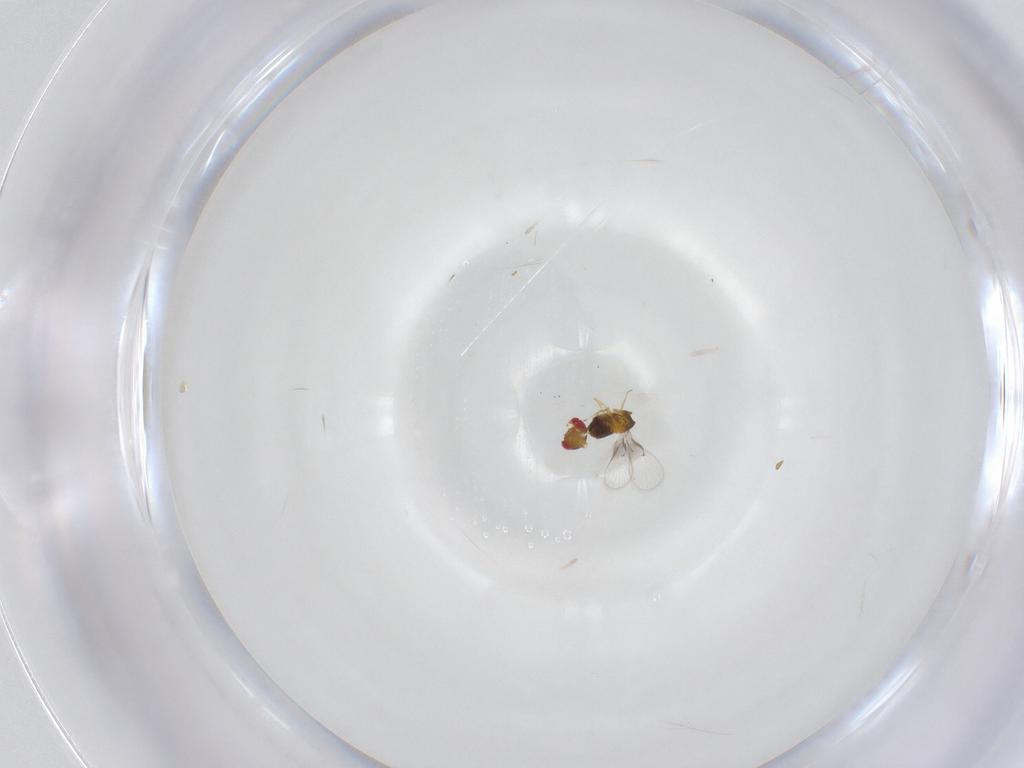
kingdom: Animalia
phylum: Arthropoda
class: Insecta
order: Hymenoptera
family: Trichogrammatidae
